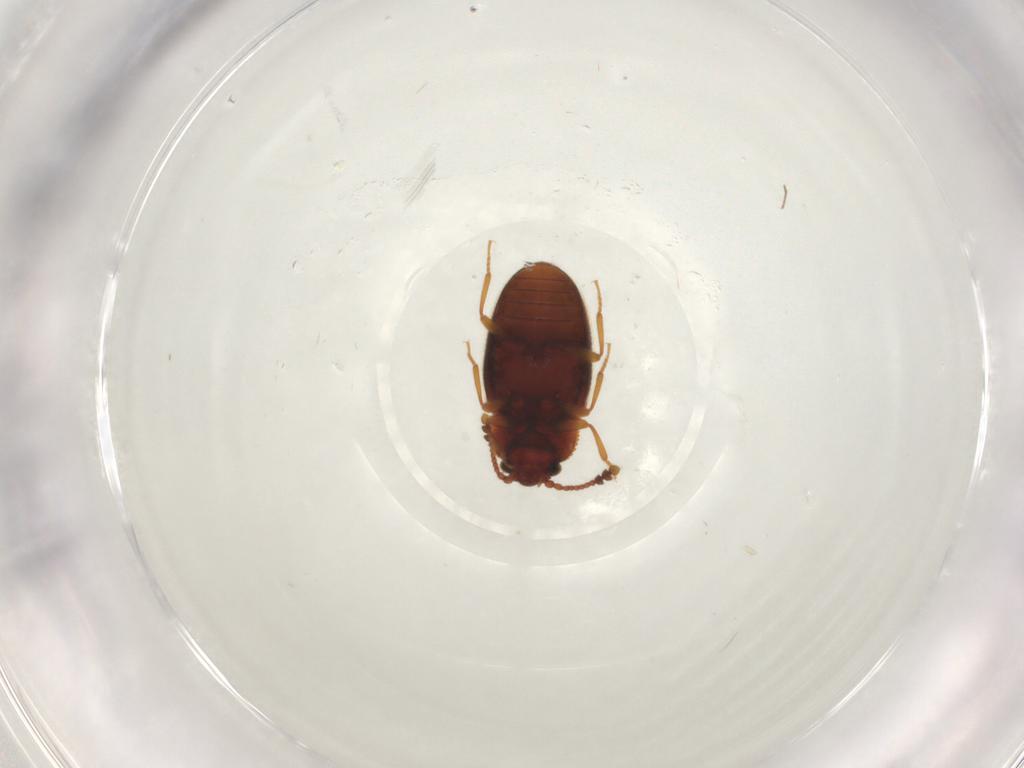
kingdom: Animalia
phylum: Arthropoda
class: Insecta
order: Coleoptera
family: Cryptophagidae
